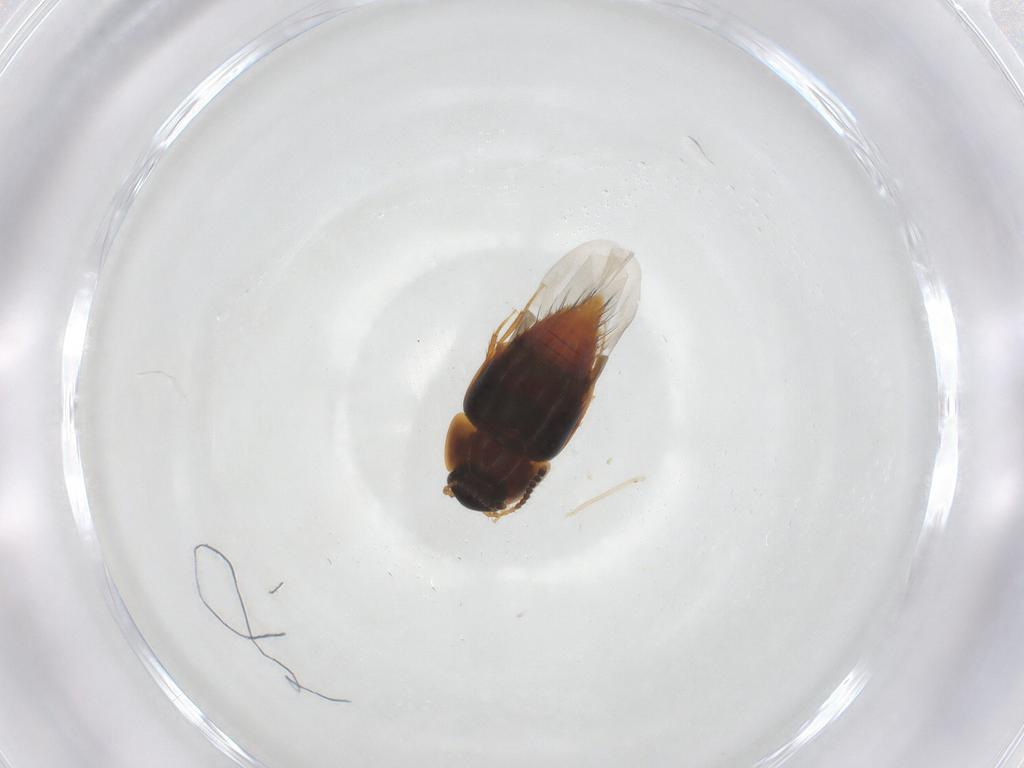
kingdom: Animalia
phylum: Arthropoda
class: Insecta
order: Coleoptera
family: Staphylinidae
